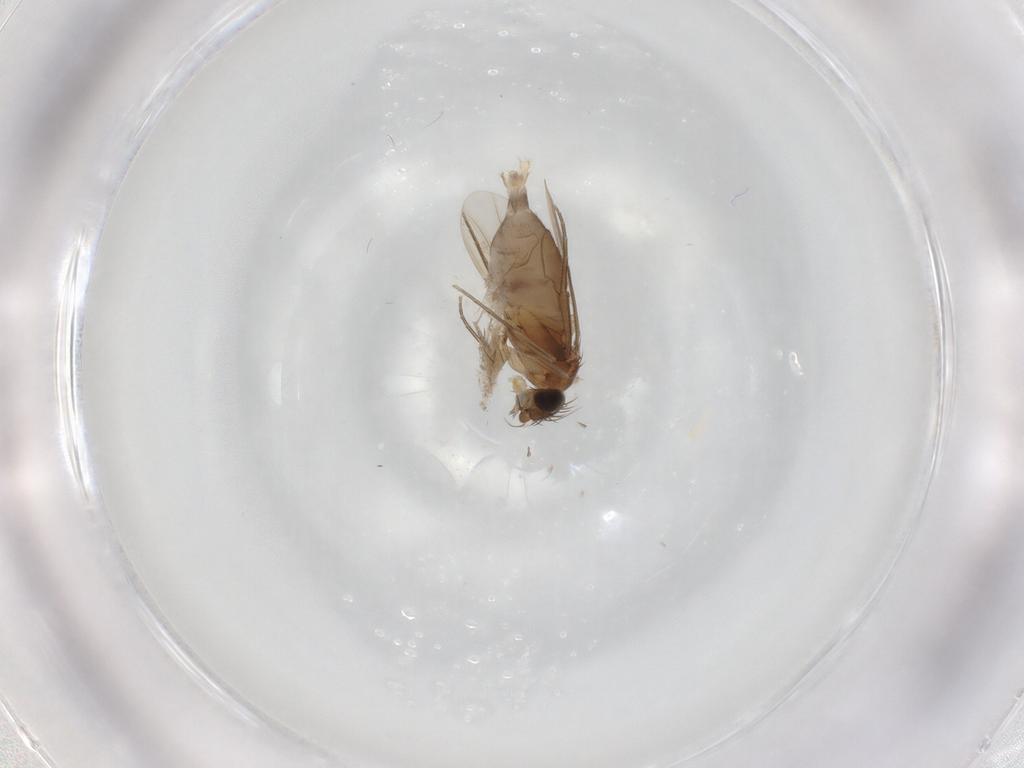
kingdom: Animalia
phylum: Arthropoda
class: Insecta
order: Diptera
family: Phoridae
